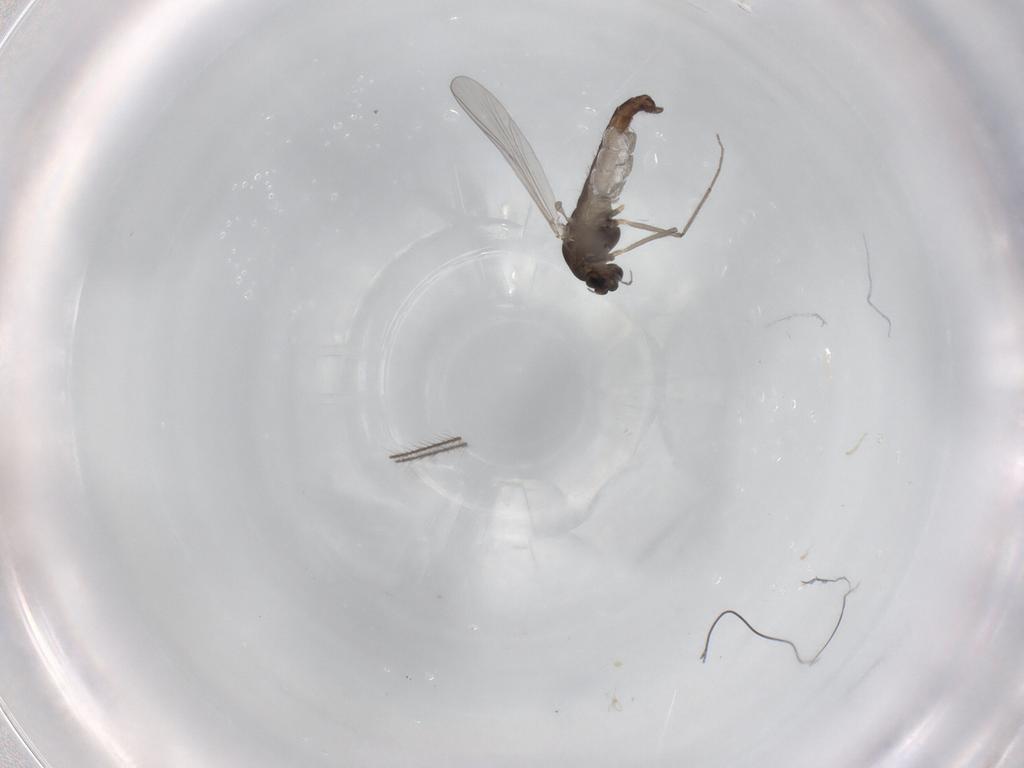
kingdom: Animalia
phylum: Arthropoda
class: Insecta
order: Diptera
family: Chironomidae
